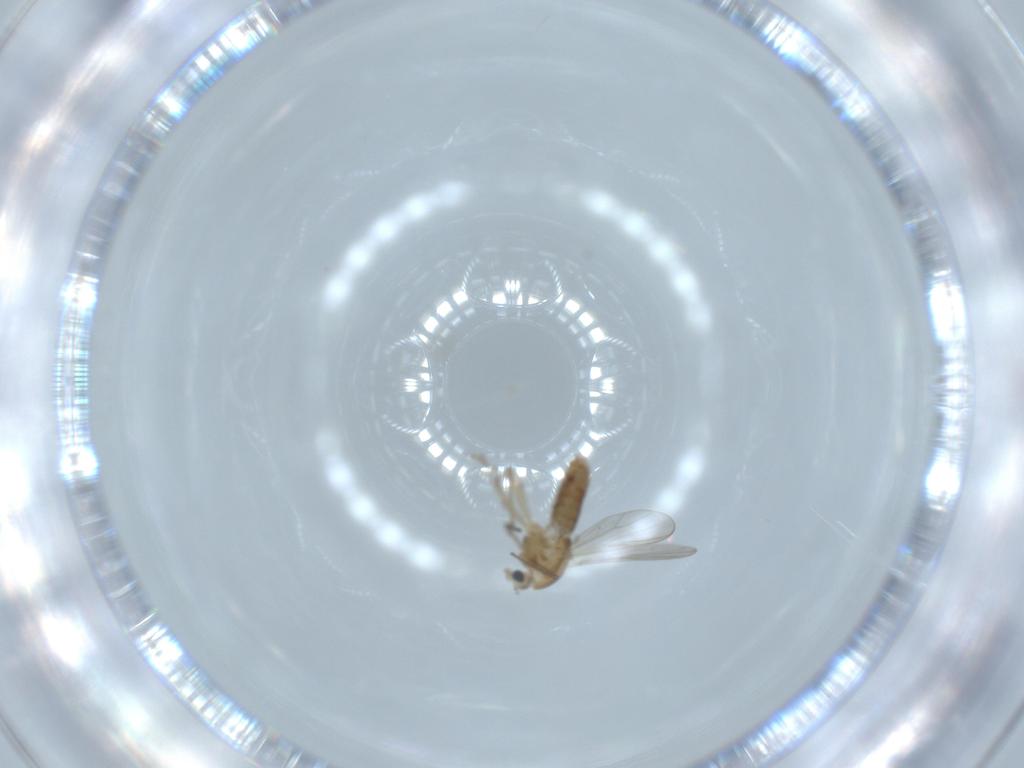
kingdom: Animalia
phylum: Arthropoda
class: Insecta
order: Diptera
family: Chironomidae
